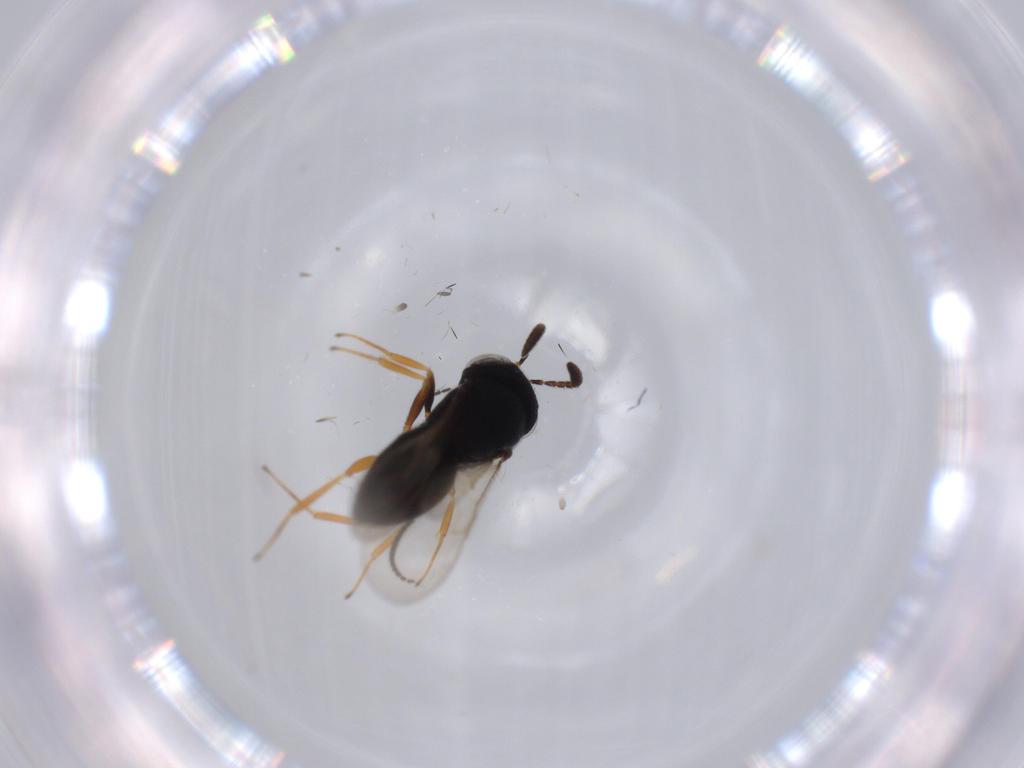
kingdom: Animalia
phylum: Arthropoda
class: Insecta
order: Hymenoptera
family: Scelionidae
